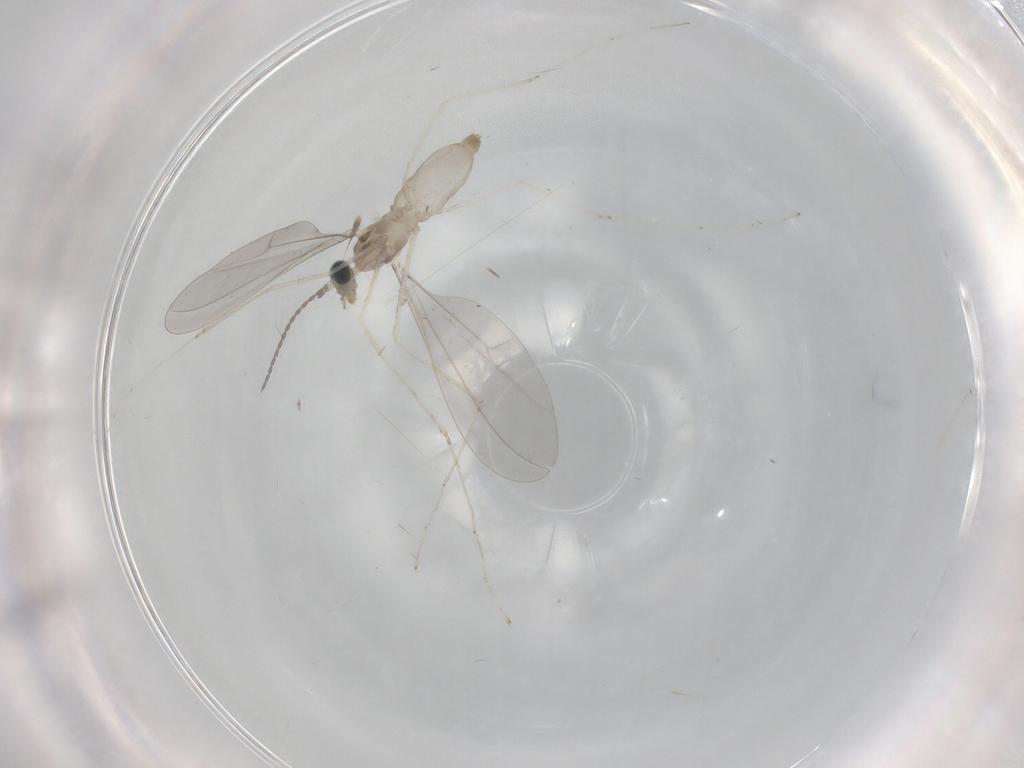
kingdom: Animalia
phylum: Arthropoda
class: Insecta
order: Diptera
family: Cecidomyiidae
